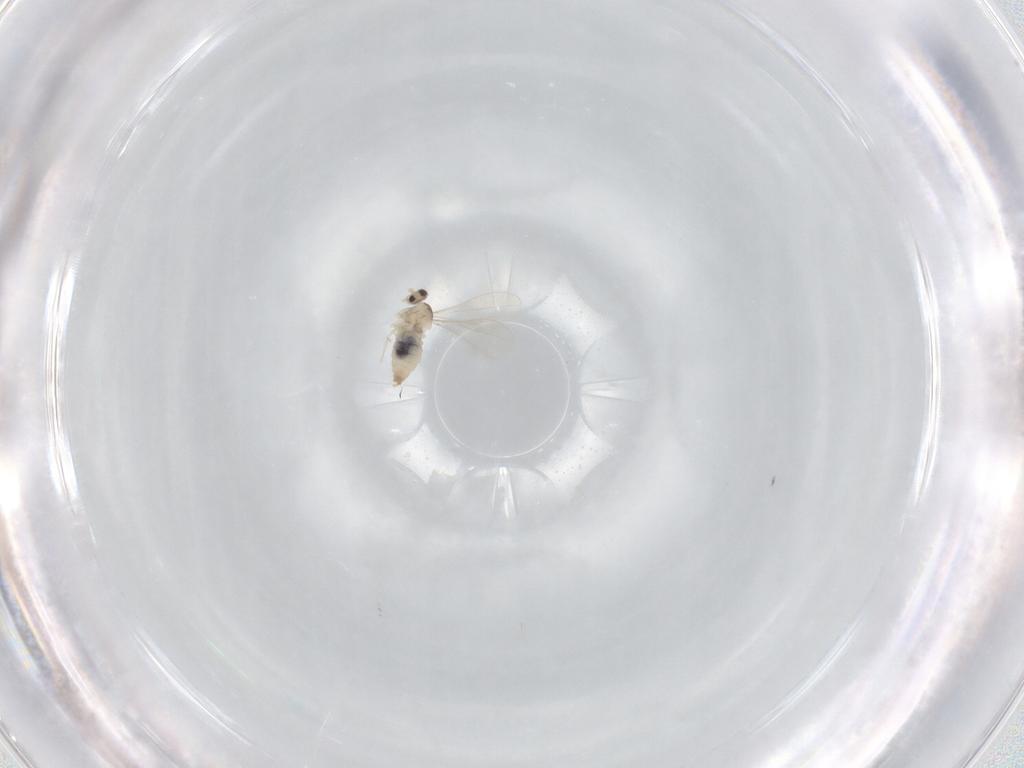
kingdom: Animalia
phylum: Arthropoda
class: Insecta
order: Diptera
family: Cecidomyiidae
